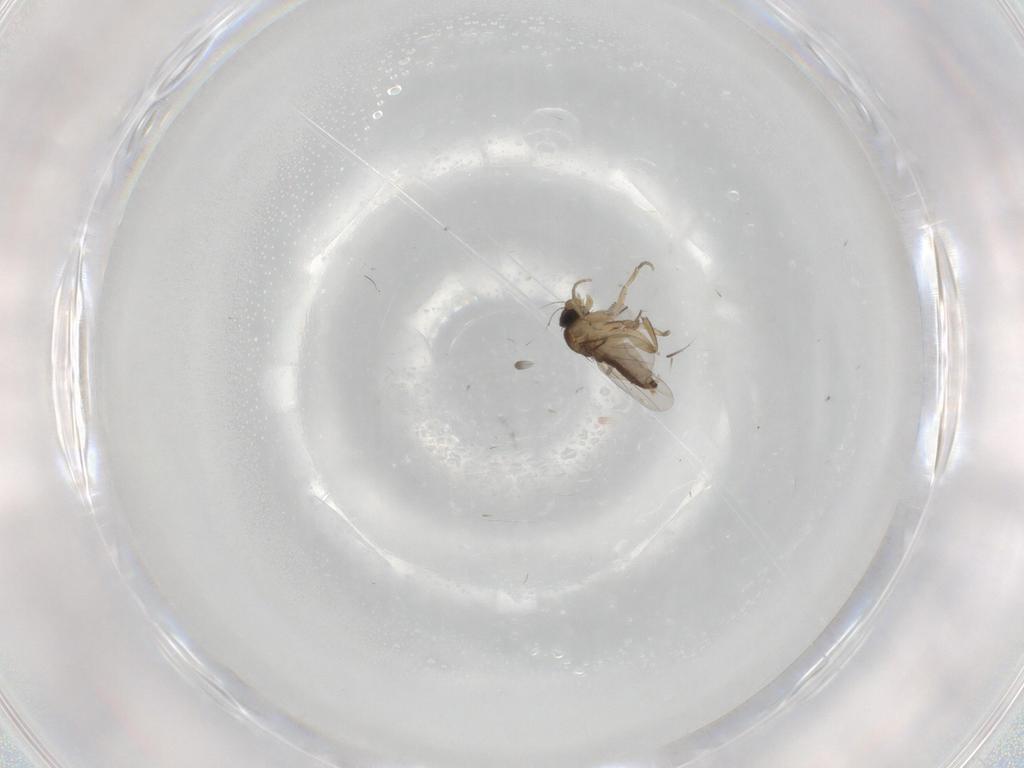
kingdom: Animalia
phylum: Arthropoda
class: Insecta
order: Diptera
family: Phoridae
